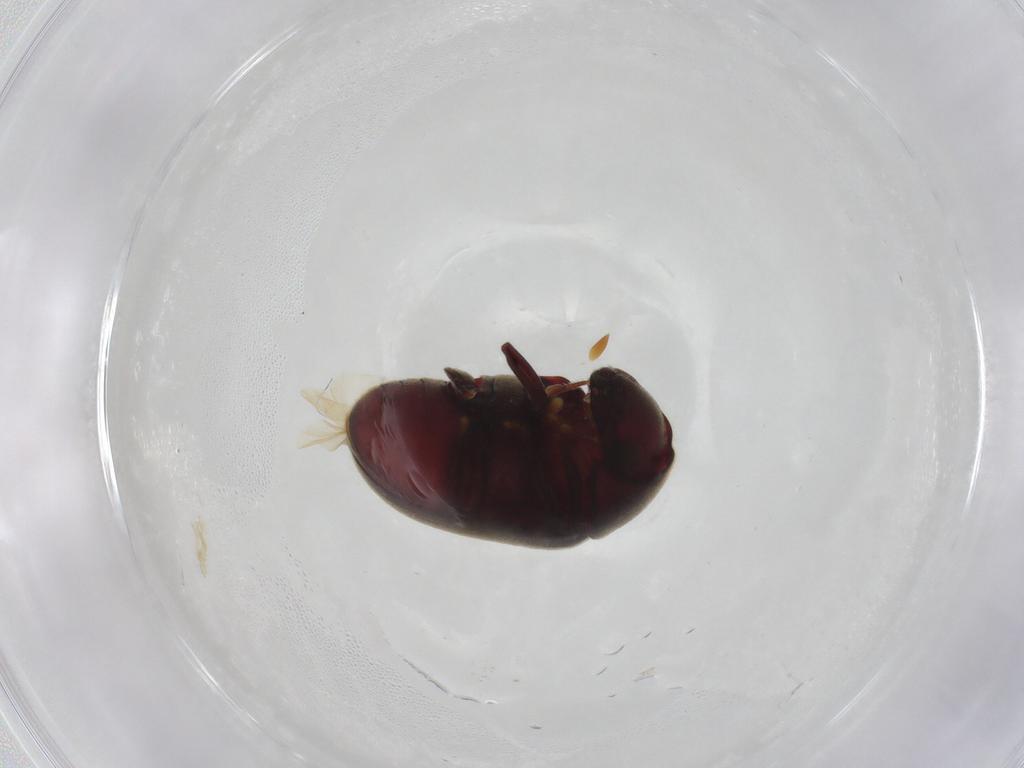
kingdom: Animalia
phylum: Arthropoda
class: Insecta
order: Coleoptera
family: Ptinidae
